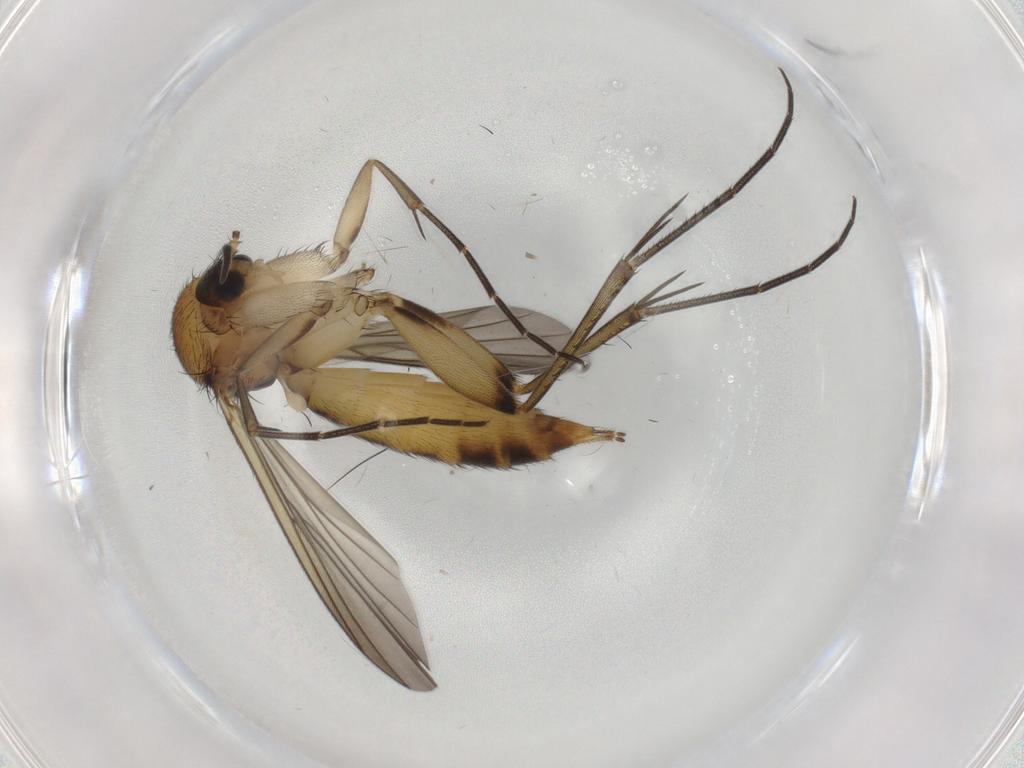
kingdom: Animalia
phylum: Arthropoda
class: Insecta
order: Diptera
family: Mycetophilidae
